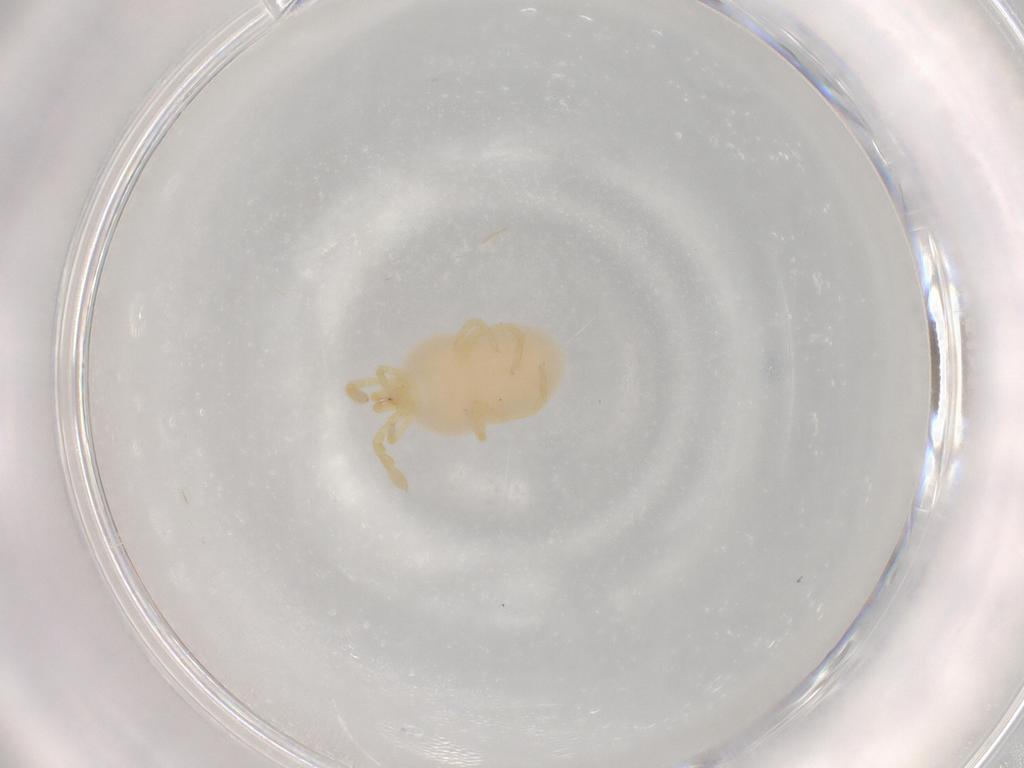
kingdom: Animalia
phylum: Arthropoda
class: Arachnida
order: Trombidiformes
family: Podothrombiidae
